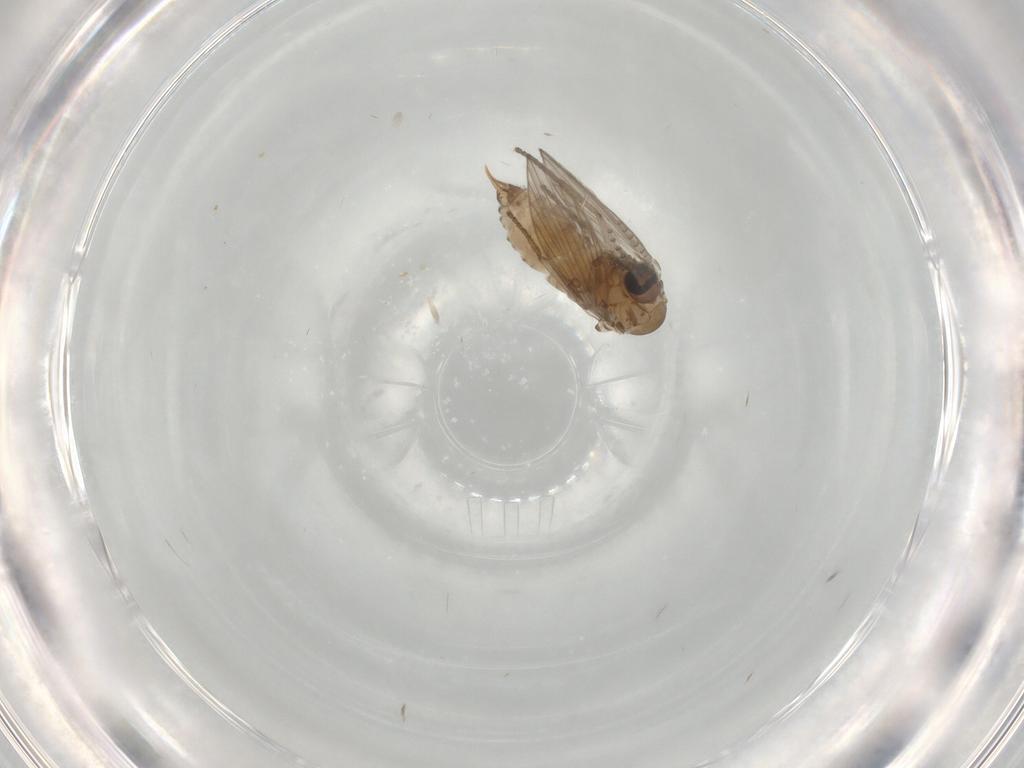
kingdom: Animalia
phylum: Arthropoda
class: Insecta
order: Diptera
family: Psychodidae
